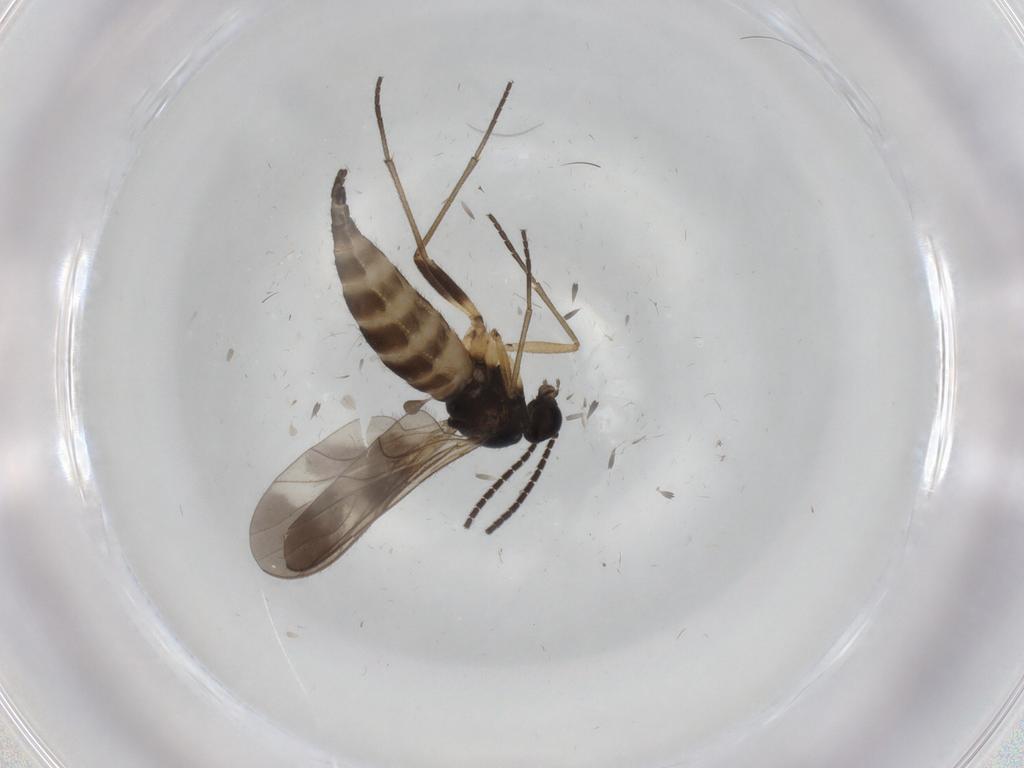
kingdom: Animalia
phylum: Arthropoda
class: Insecta
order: Diptera
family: Sciaridae
